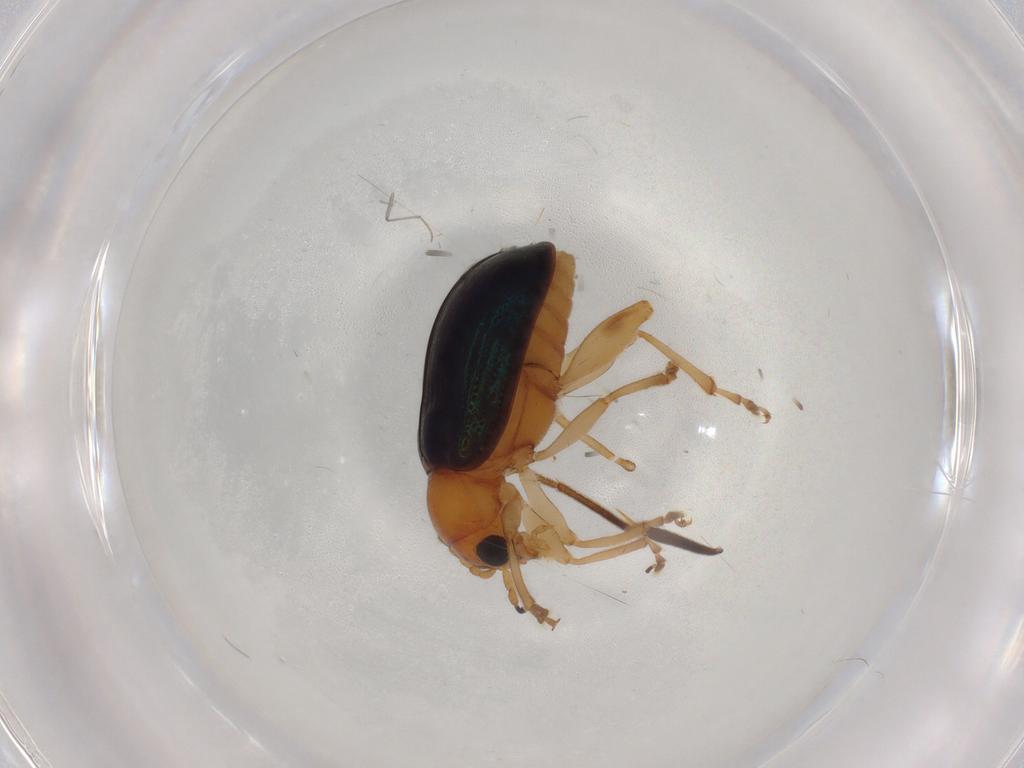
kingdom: Animalia
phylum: Arthropoda
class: Insecta
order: Coleoptera
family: Chrysomelidae
